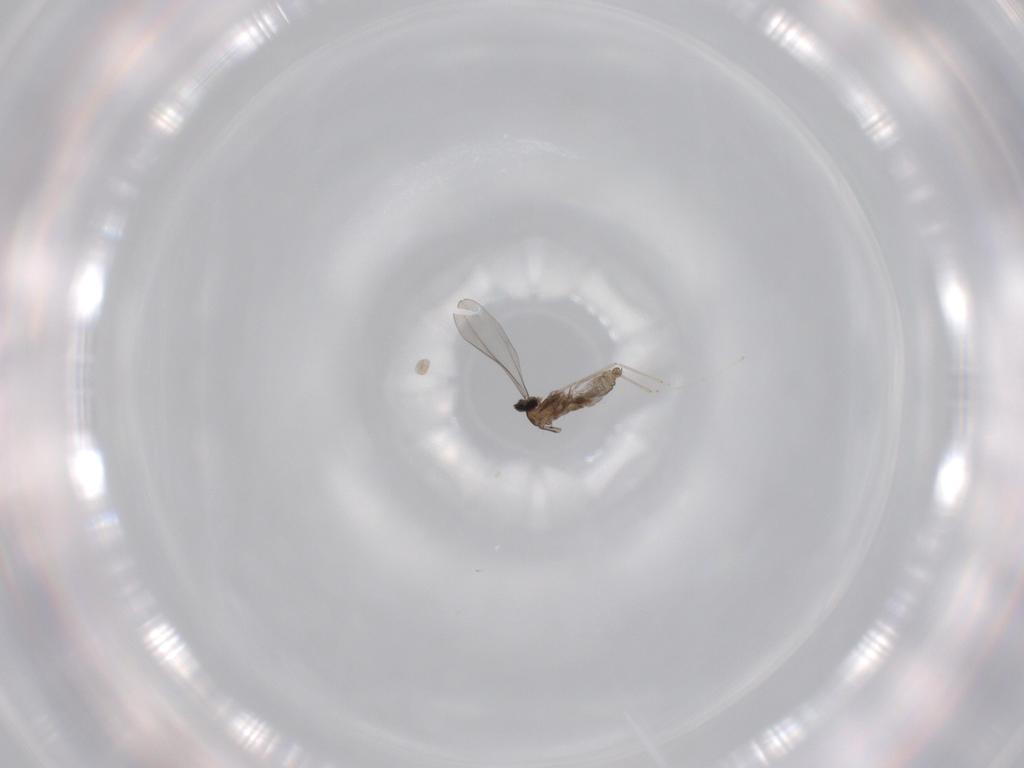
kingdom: Animalia
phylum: Arthropoda
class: Insecta
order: Diptera
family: Cecidomyiidae
